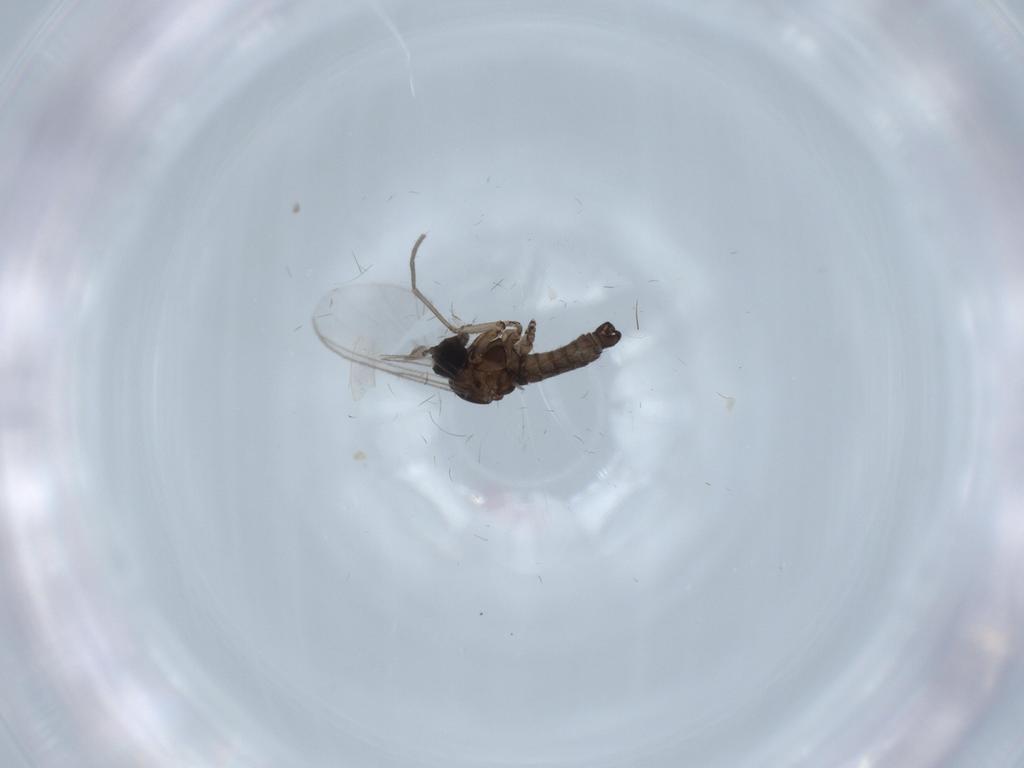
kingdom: Animalia
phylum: Arthropoda
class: Insecta
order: Diptera
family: Sciaridae
